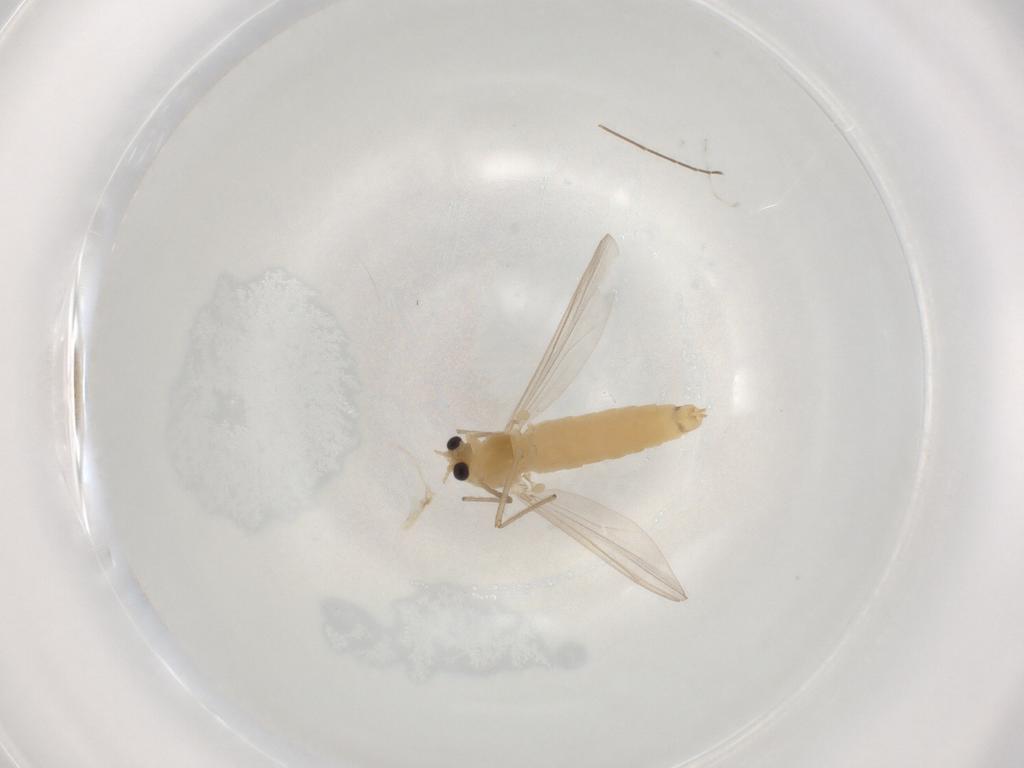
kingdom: Animalia
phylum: Arthropoda
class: Insecta
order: Diptera
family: Chironomidae
